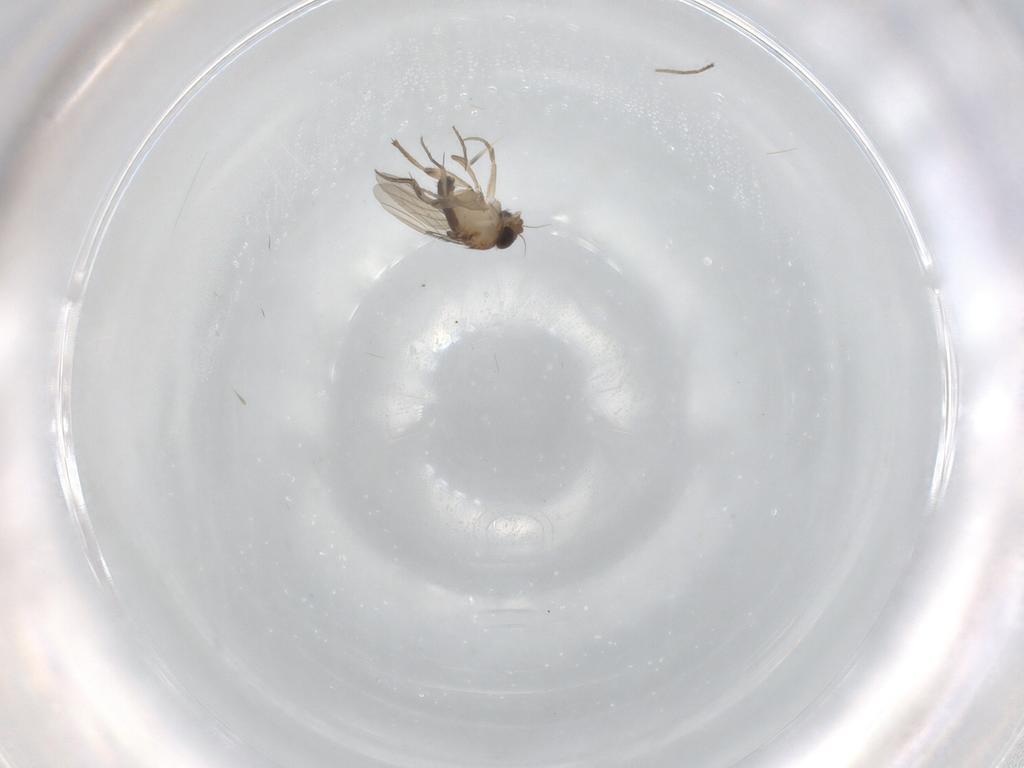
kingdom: Animalia
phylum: Arthropoda
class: Insecta
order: Diptera
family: Phoridae
